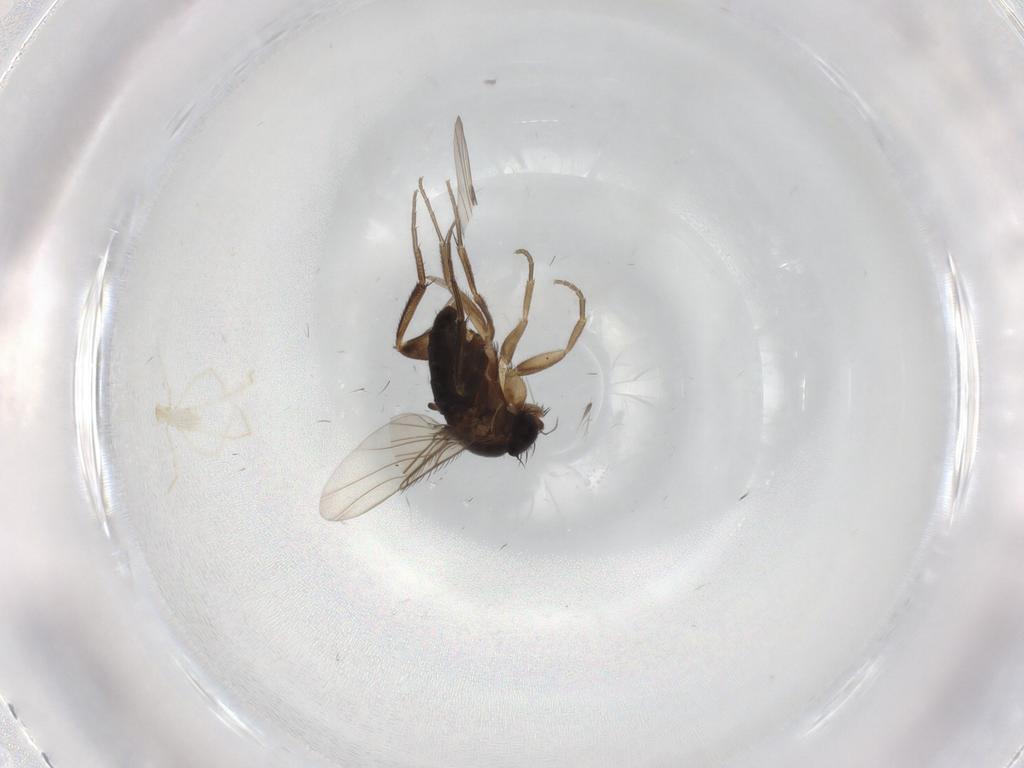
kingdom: Animalia
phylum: Arthropoda
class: Insecta
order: Diptera
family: Sciaridae
